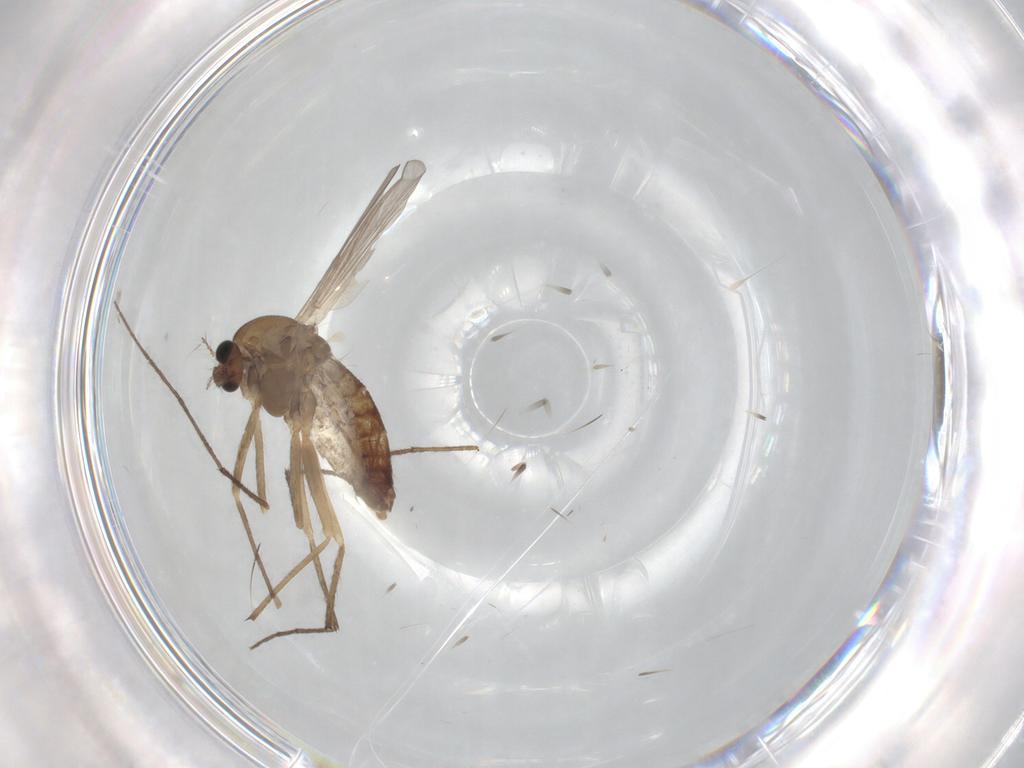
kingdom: Animalia
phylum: Arthropoda
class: Insecta
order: Diptera
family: Chironomidae
